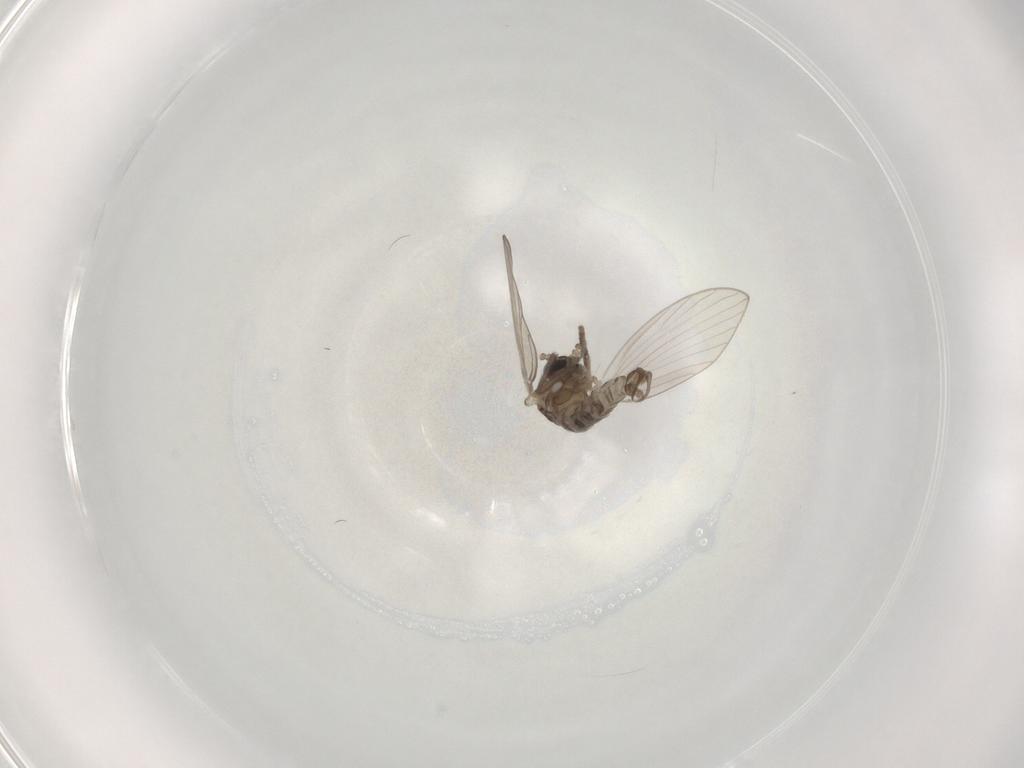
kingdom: Animalia
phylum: Arthropoda
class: Insecta
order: Diptera
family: Psychodidae
